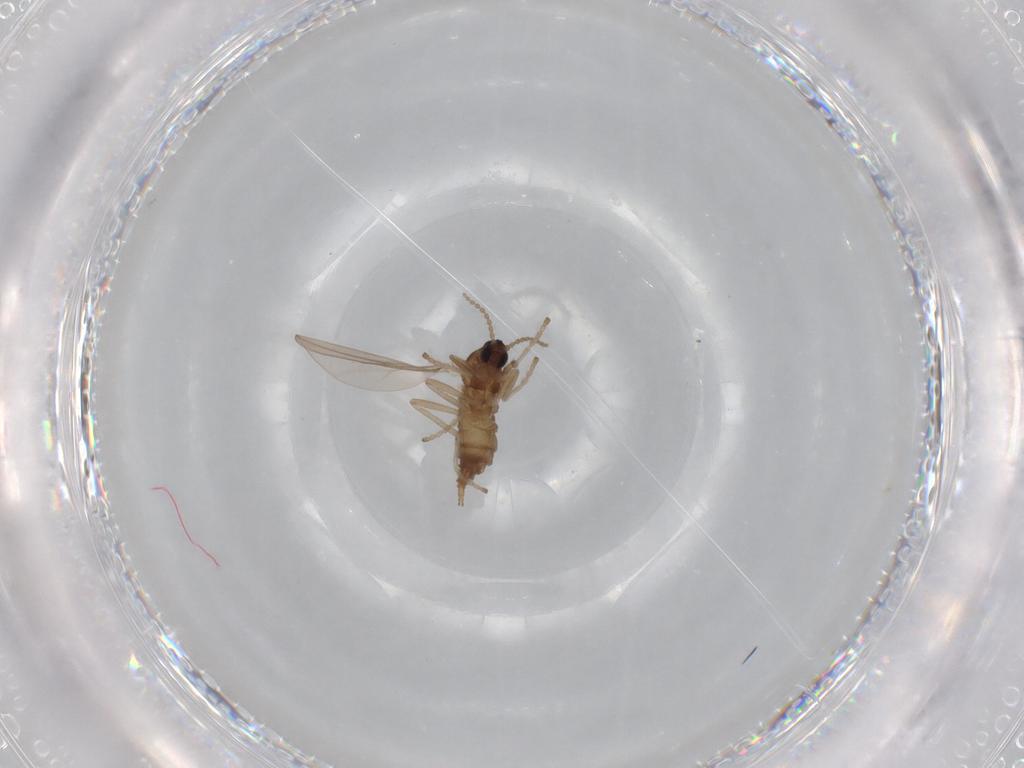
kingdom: Animalia
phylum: Arthropoda
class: Insecta
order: Diptera
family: Cecidomyiidae
